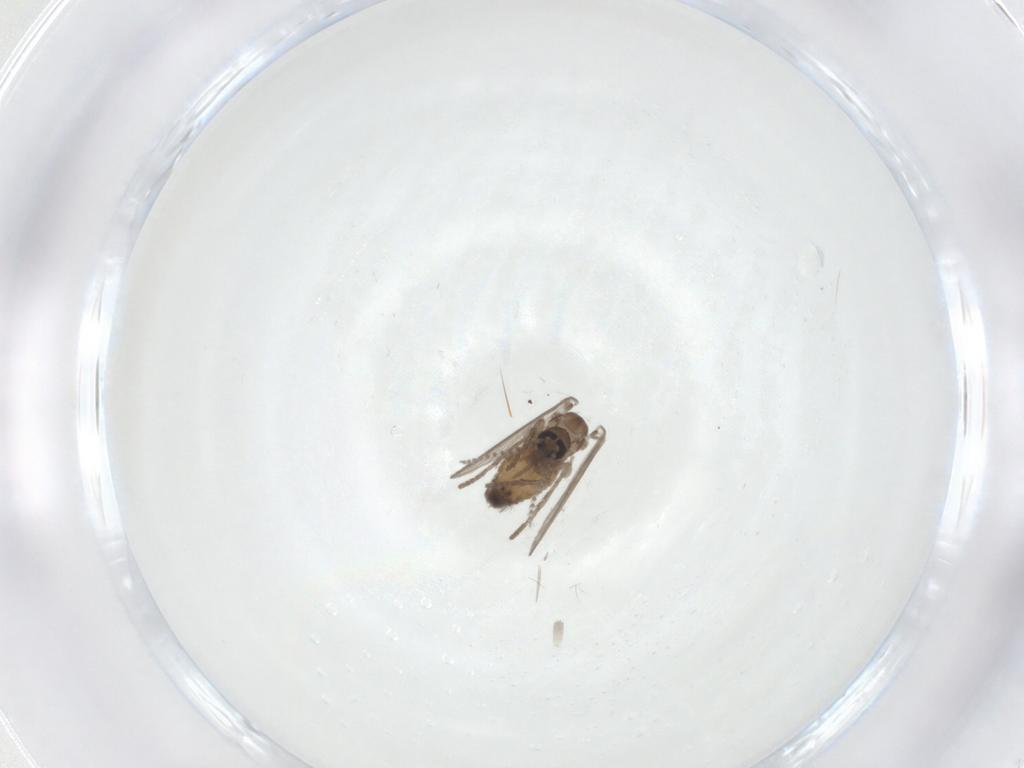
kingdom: Animalia
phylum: Arthropoda
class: Insecta
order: Diptera
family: Psychodidae
